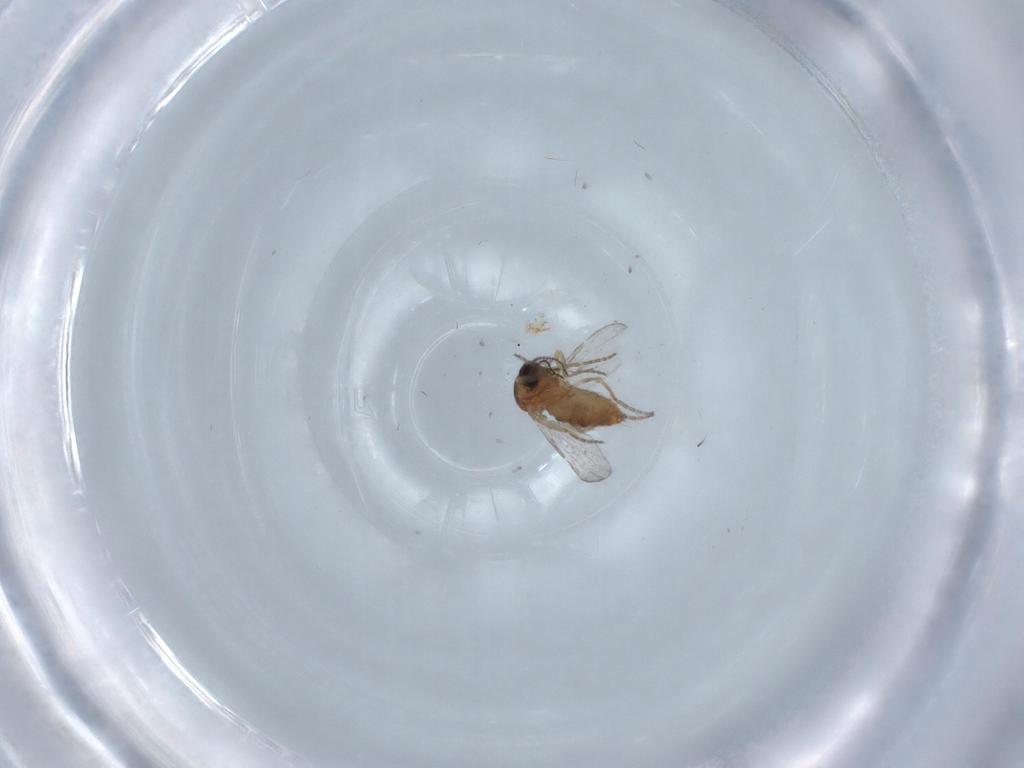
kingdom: Animalia
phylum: Arthropoda
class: Insecta
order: Diptera
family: Ceratopogonidae
